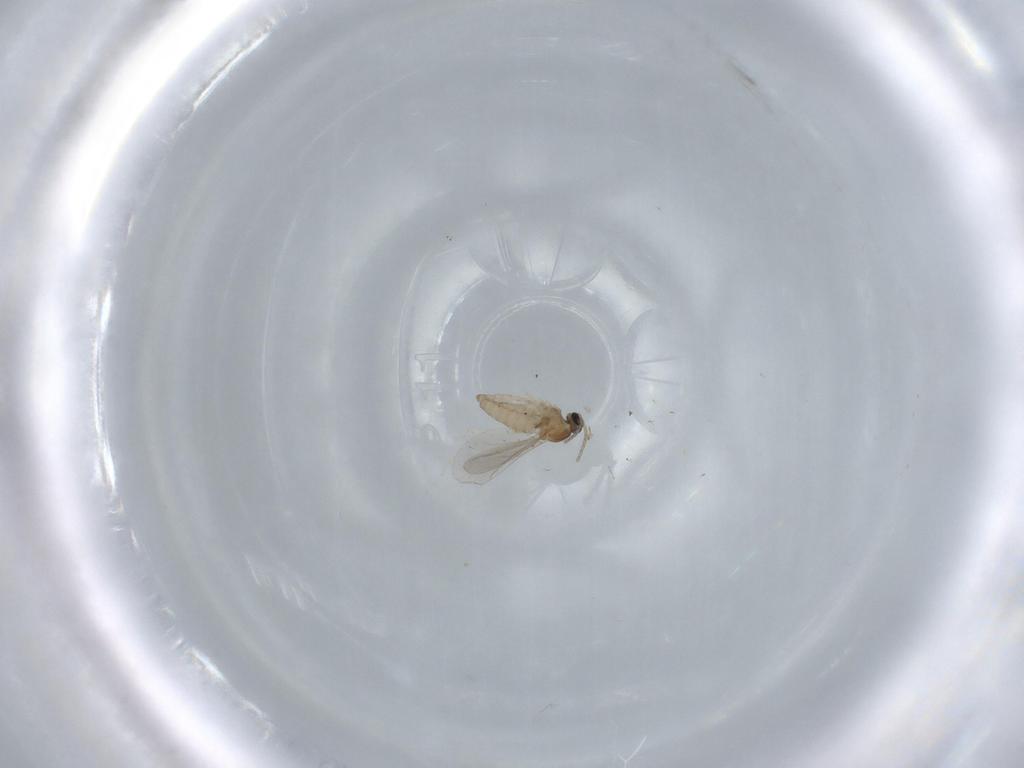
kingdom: Animalia
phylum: Arthropoda
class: Insecta
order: Diptera
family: Cecidomyiidae
